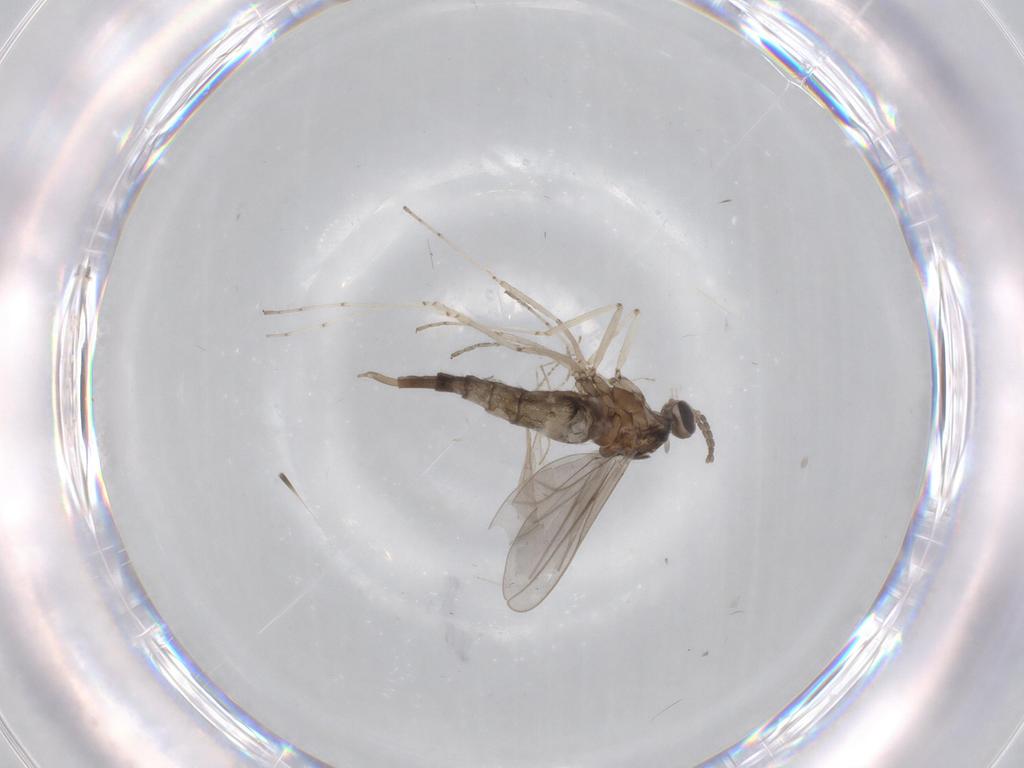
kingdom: Animalia
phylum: Arthropoda
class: Insecta
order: Diptera
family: Cecidomyiidae
